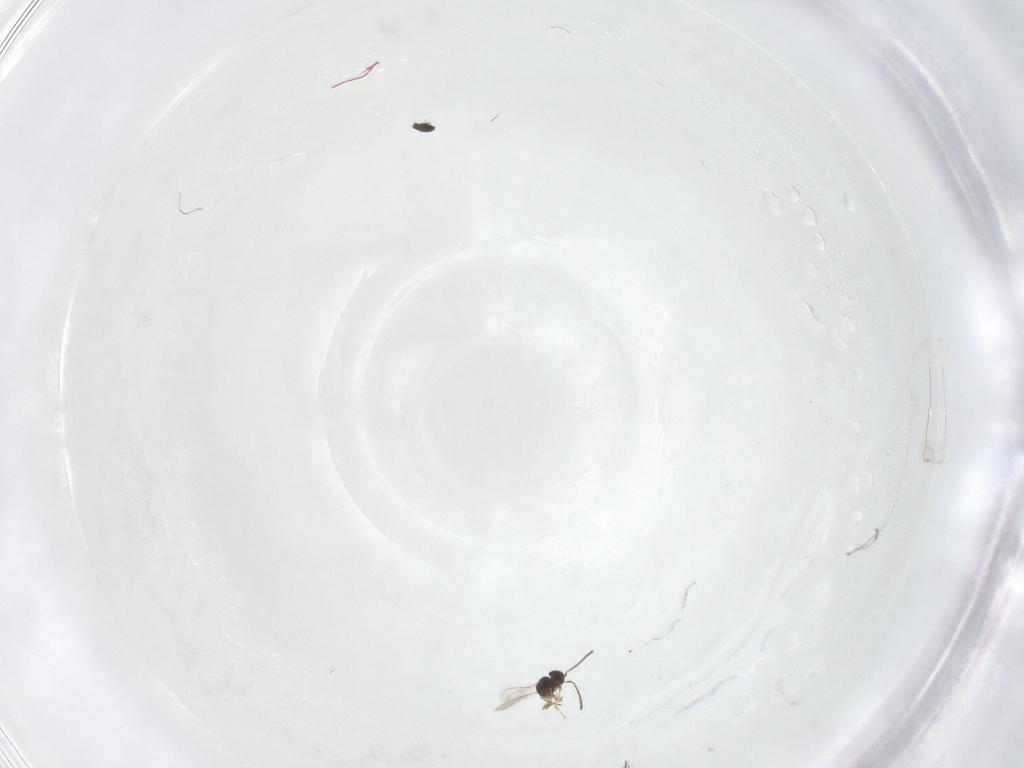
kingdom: Animalia
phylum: Arthropoda
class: Insecta
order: Hymenoptera
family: Scelionidae
